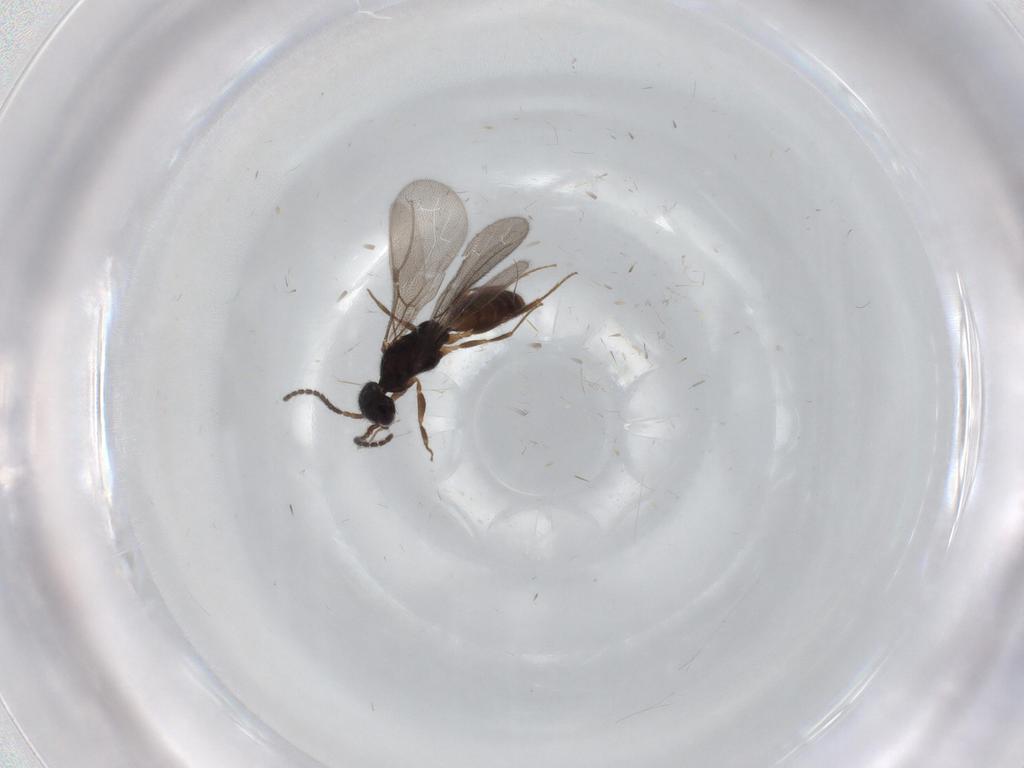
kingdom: Animalia
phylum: Arthropoda
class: Insecta
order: Hymenoptera
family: Bethylidae
